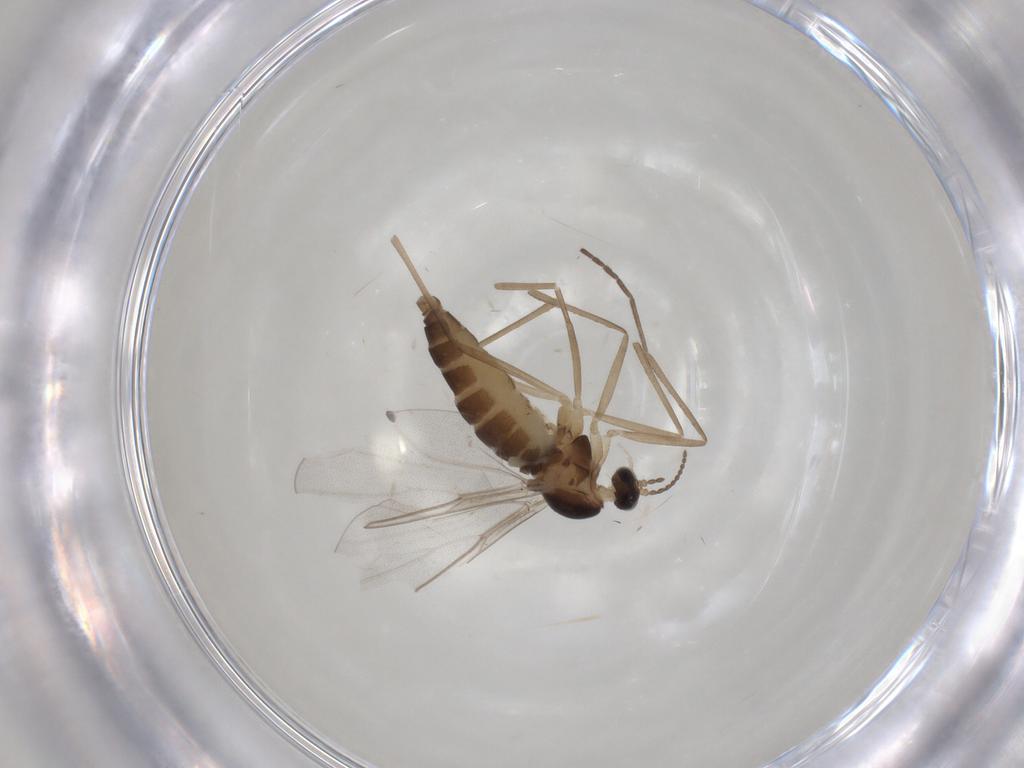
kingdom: Animalia
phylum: Arthropoda
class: Insecta
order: Diptera
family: Cecidomyiidae
